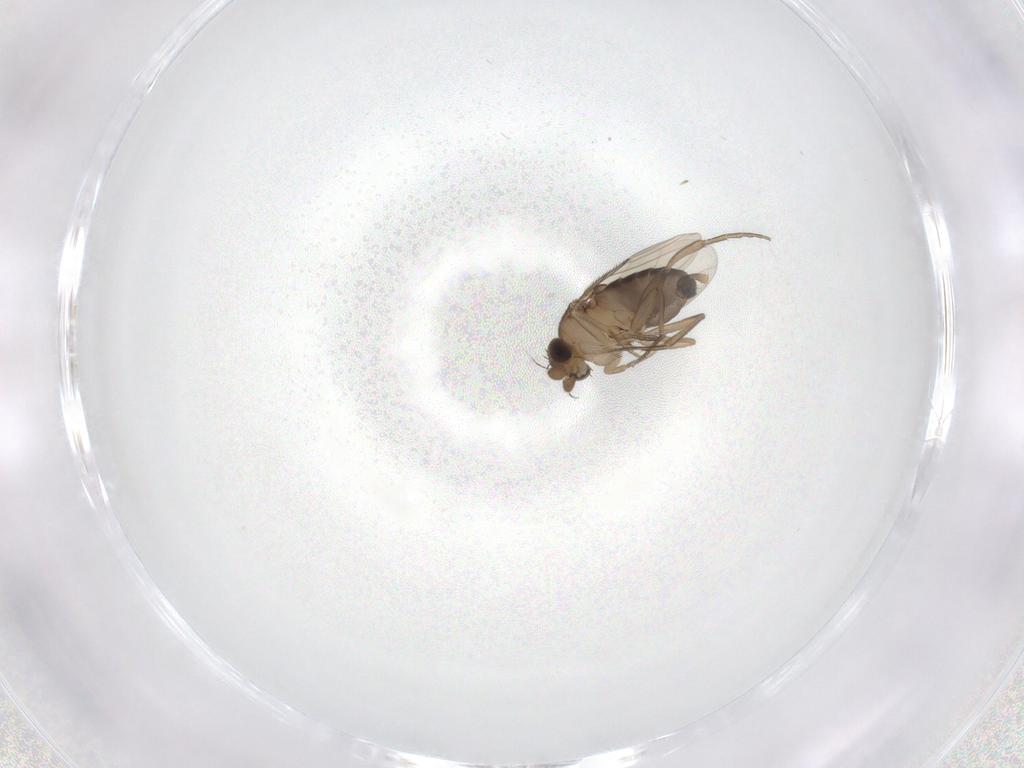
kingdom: Animalia
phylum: Arthropoda
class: Insecta
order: Diptera
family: Phoridae
